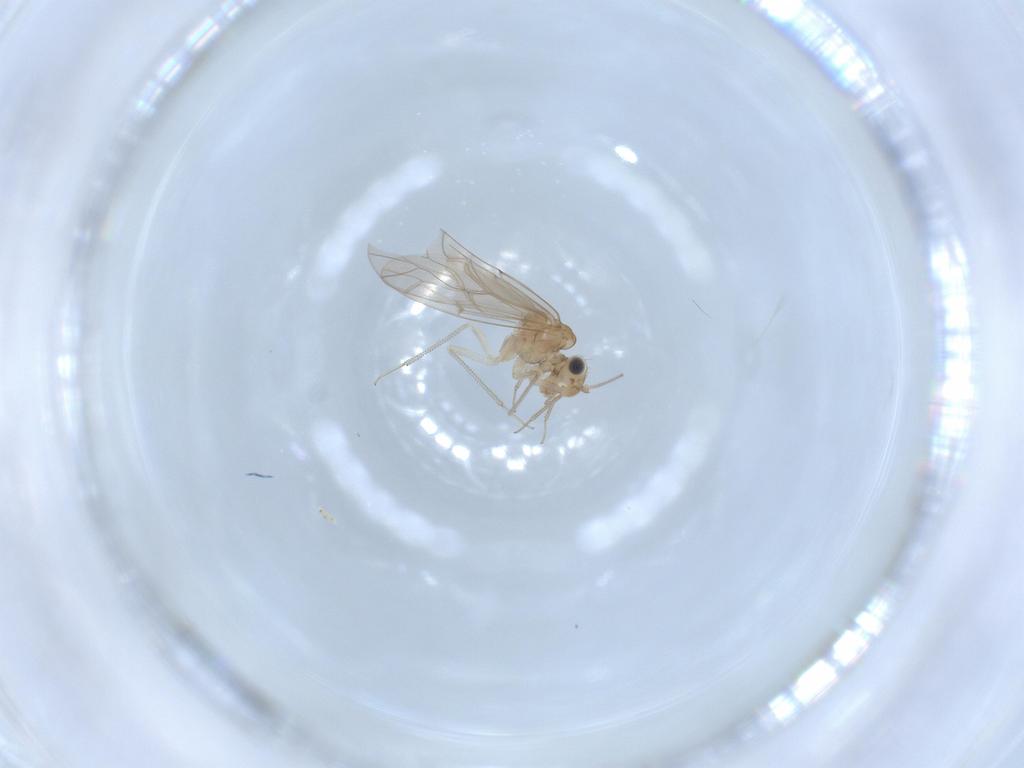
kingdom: Animalia
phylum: Arthropoda
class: Insecta
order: Psocodea
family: Lachesillidae
